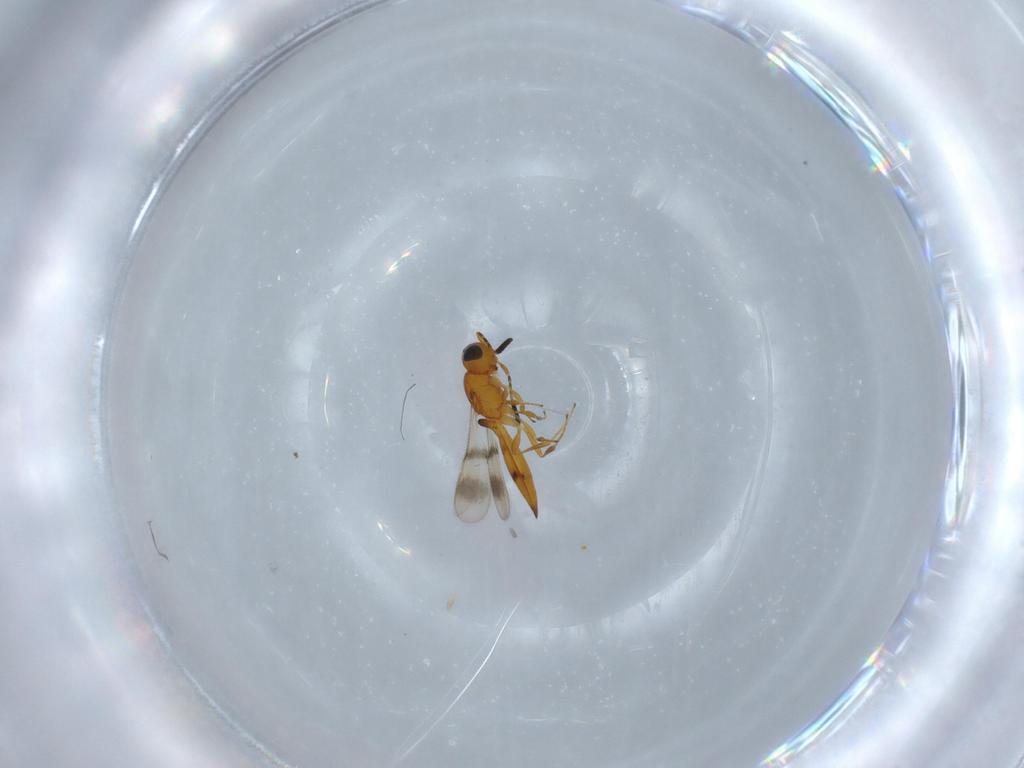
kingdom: Animalia
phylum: Arthropoda
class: Insecta
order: Hymenoptera
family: Scelionidae
